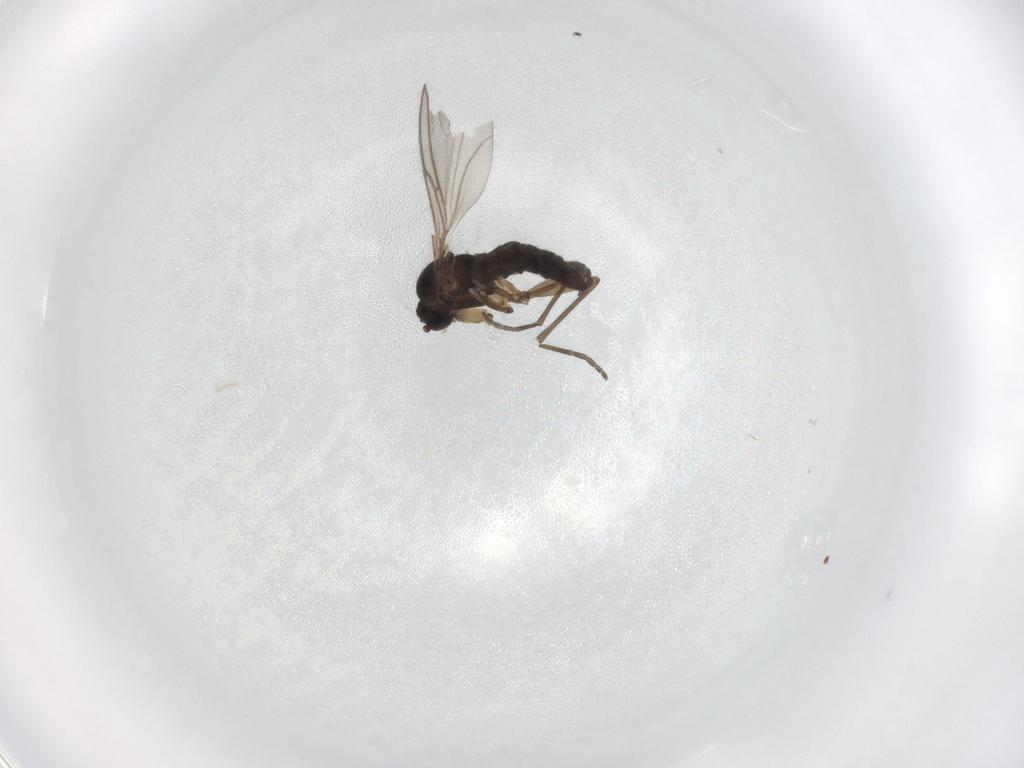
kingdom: Animalia
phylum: Arthropoda
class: Insecta
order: Diptera
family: Sciaridae
